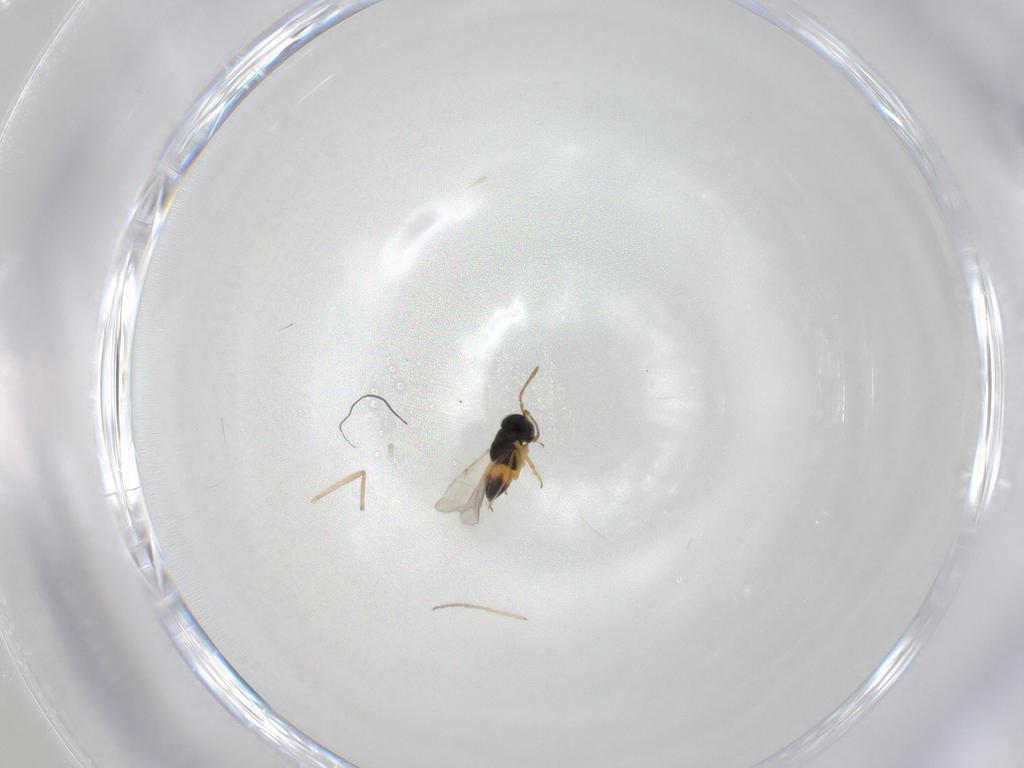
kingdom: Animalia
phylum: Arthropoda
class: Insecta
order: Hymenoptera
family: Encyrtidae
